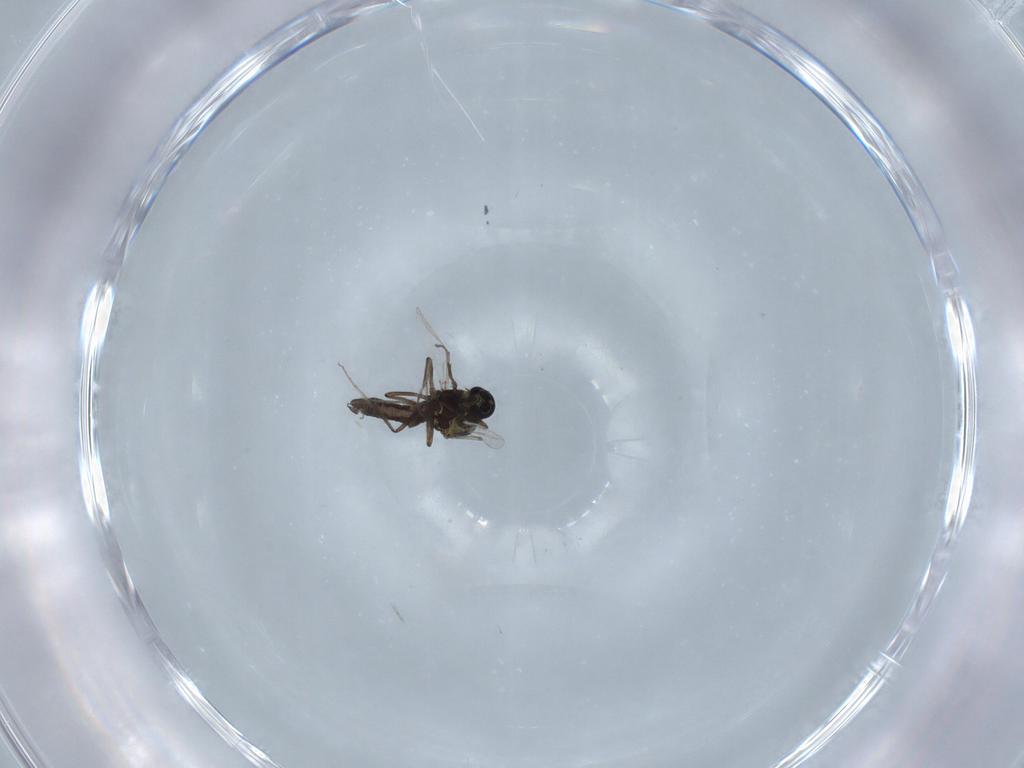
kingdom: Animalia
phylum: Arthropoda
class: Insecta
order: Diptera
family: Ceratopogonidae
